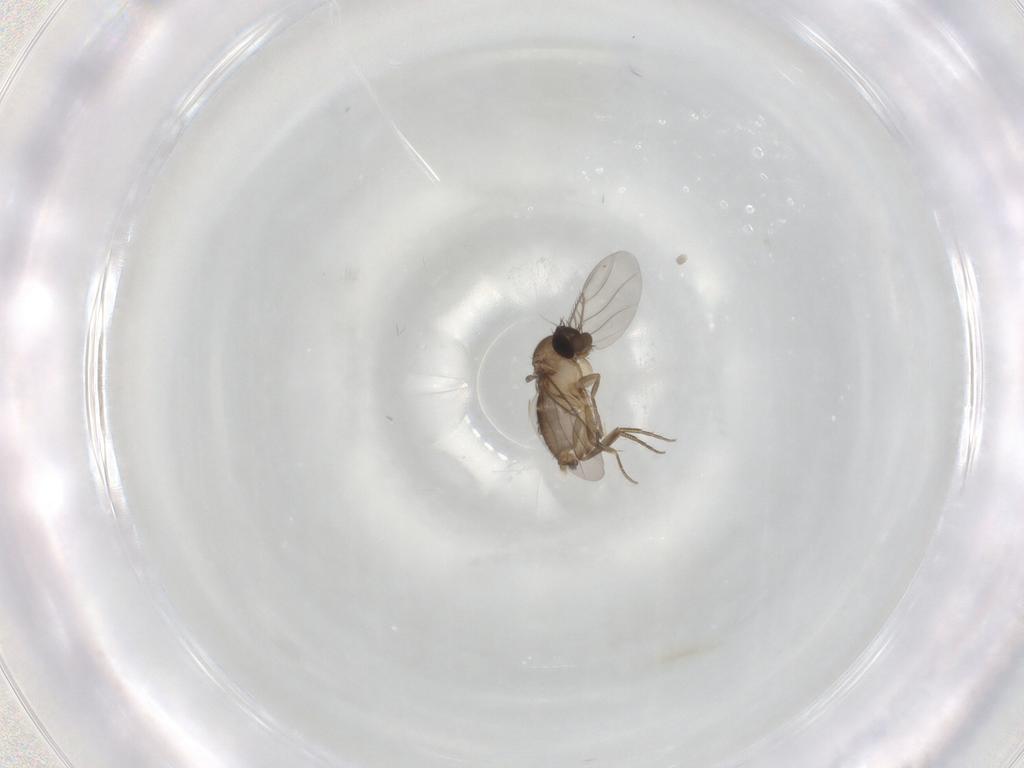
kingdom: Animalia
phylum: Arthropoda
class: Insecta
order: Diptera
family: Phoridae
